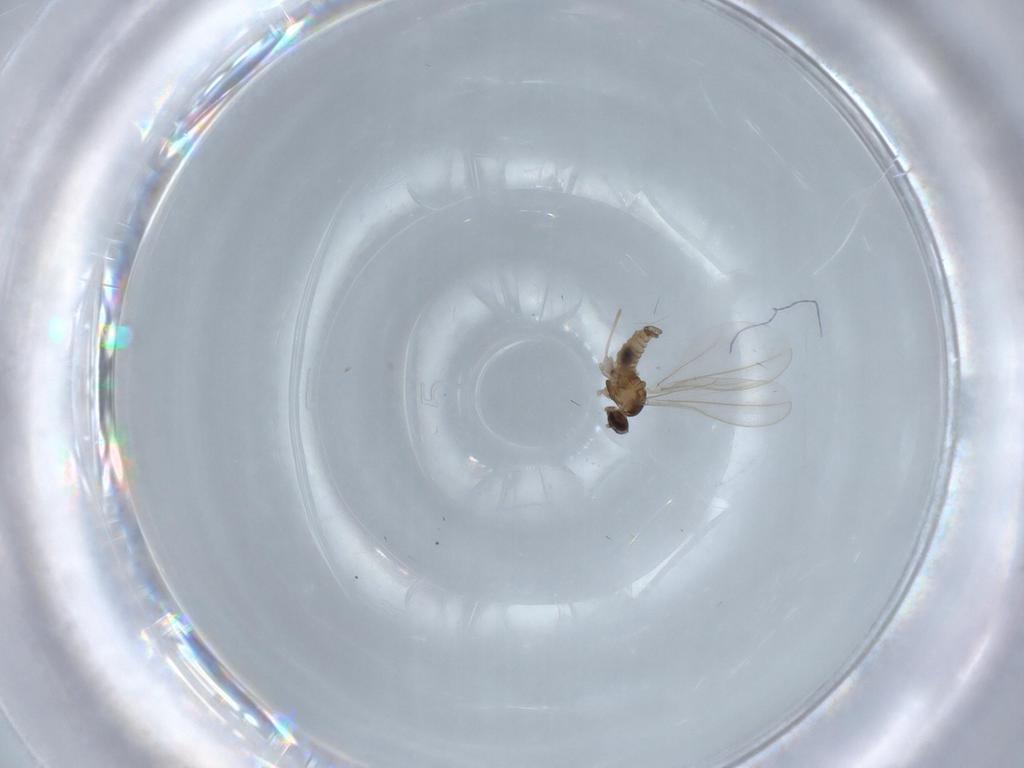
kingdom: Animalia
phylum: Arthropoda
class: Insecta
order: Diptera
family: Cecidomyiidae
